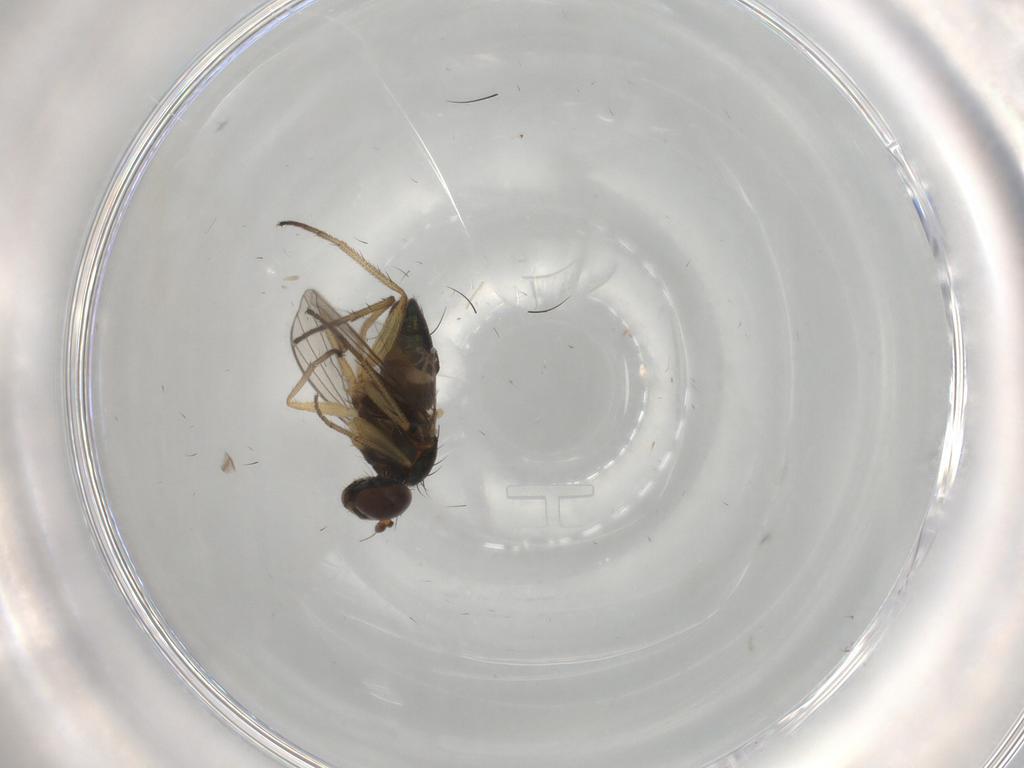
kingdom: Animalia
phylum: Arthropoda
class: Insecta
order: Diptera
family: Dolichopodidae
